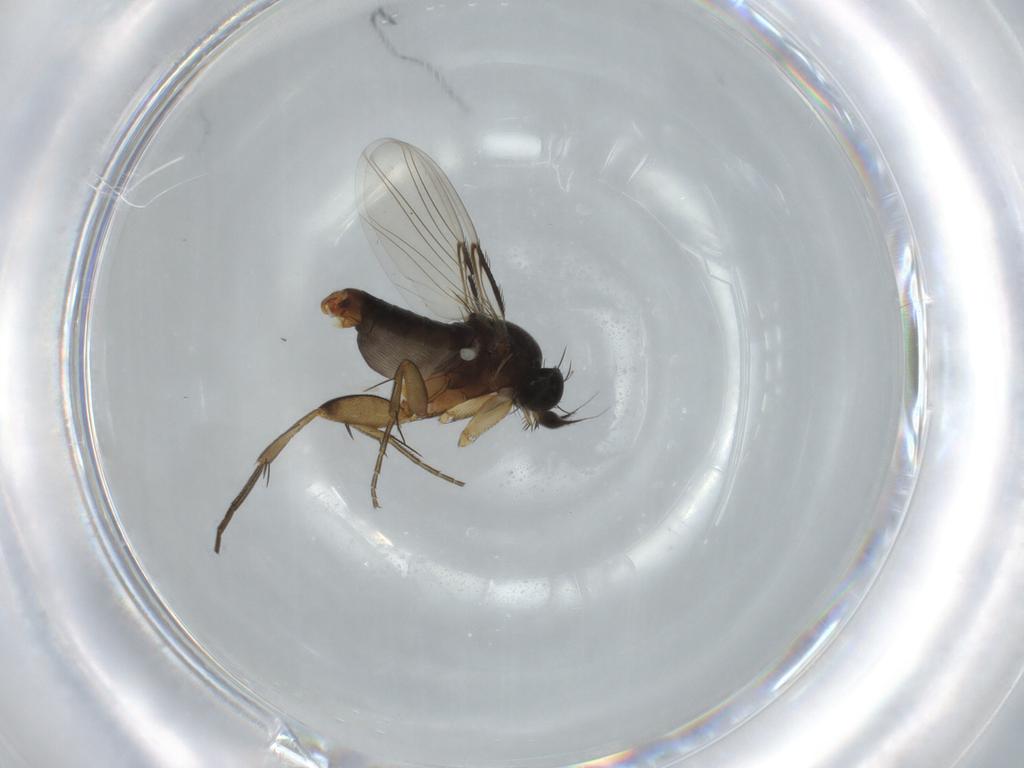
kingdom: Animalia
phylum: Arthropoda
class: Insecta
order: Diptera
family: Phoridae
